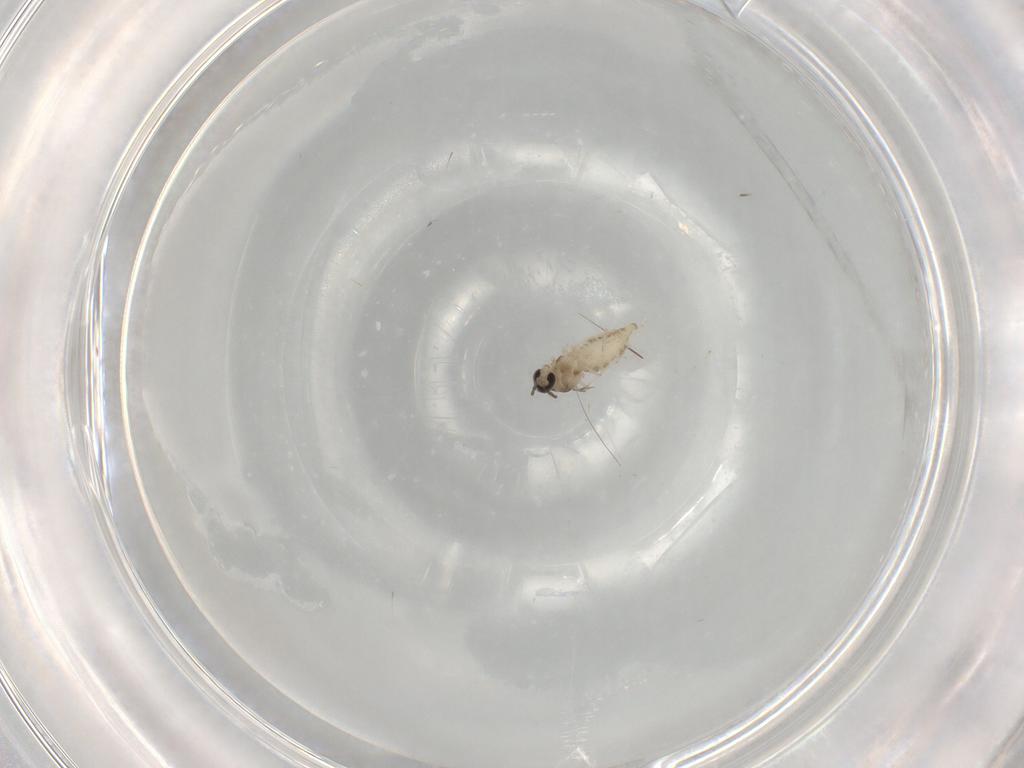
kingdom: Animalia
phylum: Arthropoda
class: Insecta
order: Diptera
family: Cecidomyiidae
